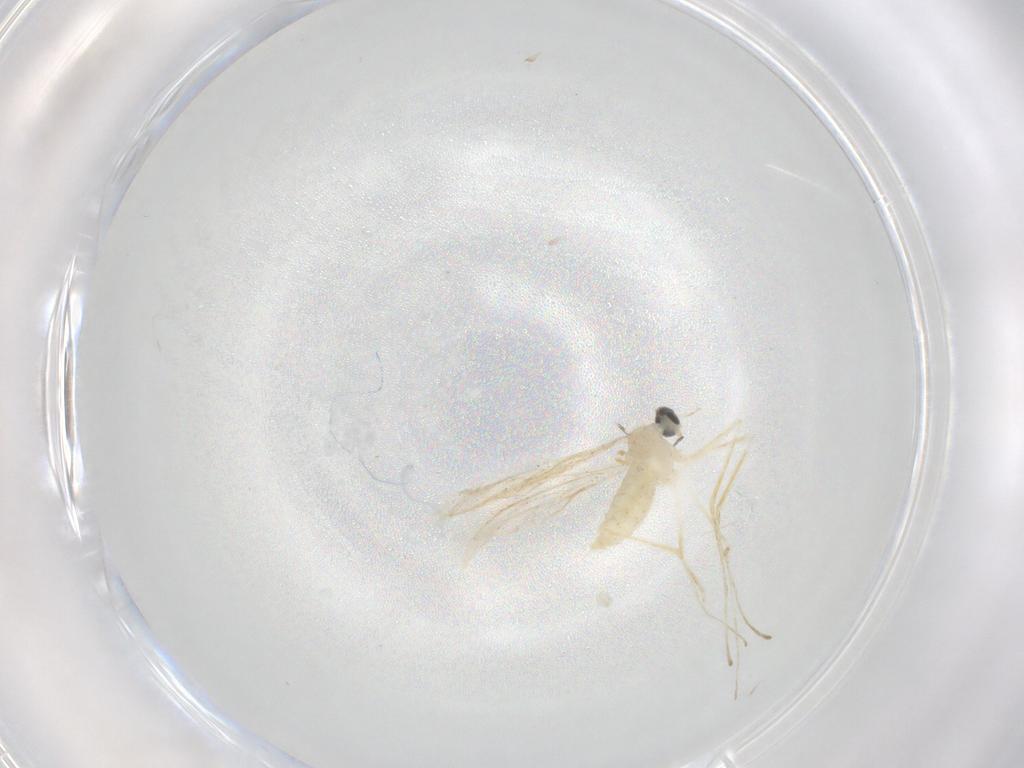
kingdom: Animalia
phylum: Arthropoda
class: Insecta
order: Diptera
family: Cecidomyiidae
